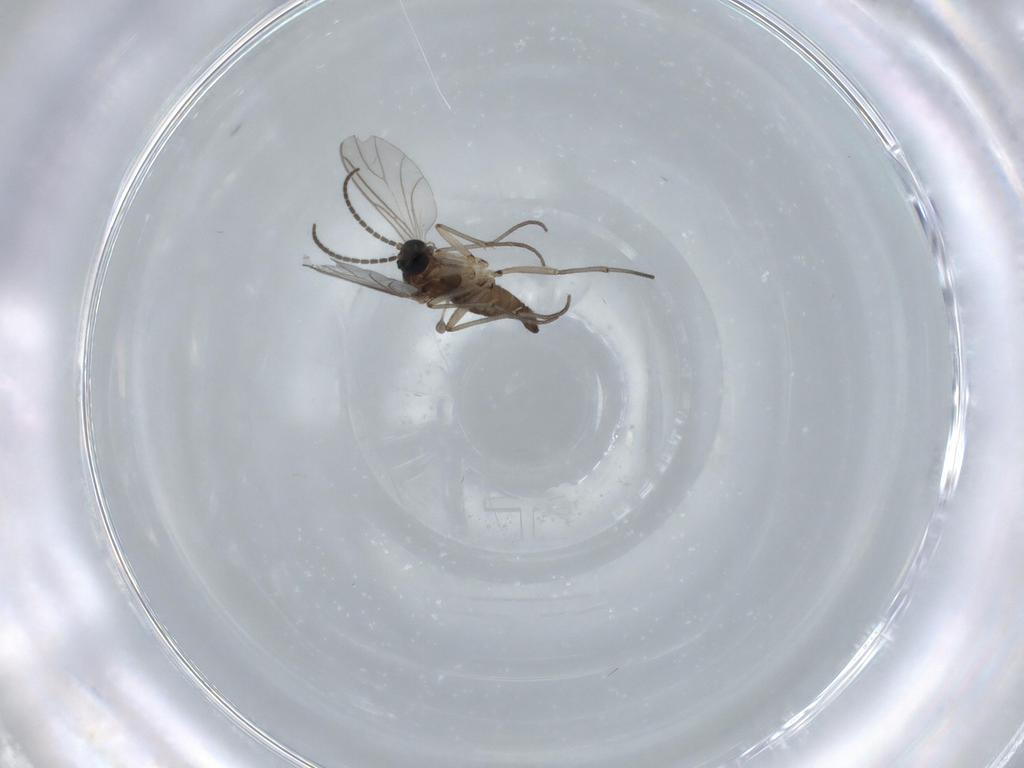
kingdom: Animalia
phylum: Arthropoda
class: Insecta
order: Diptera
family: Sciaridae
